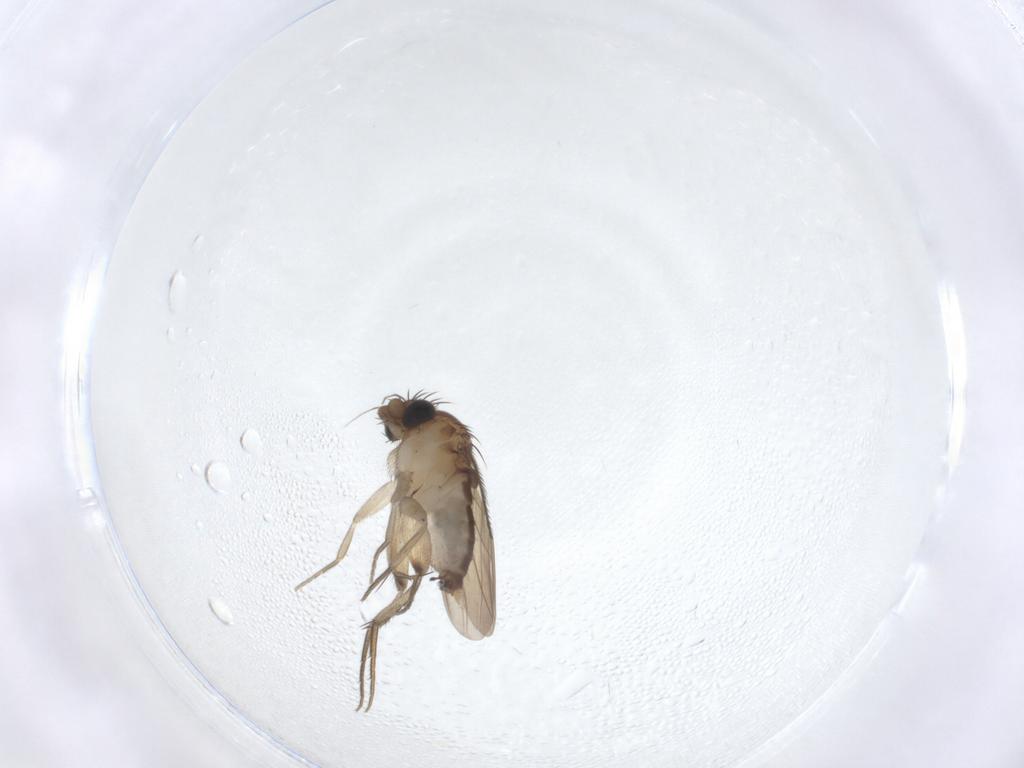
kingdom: Animalia
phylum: Arthropoda
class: Insecta
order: Diptera
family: Phoridae
